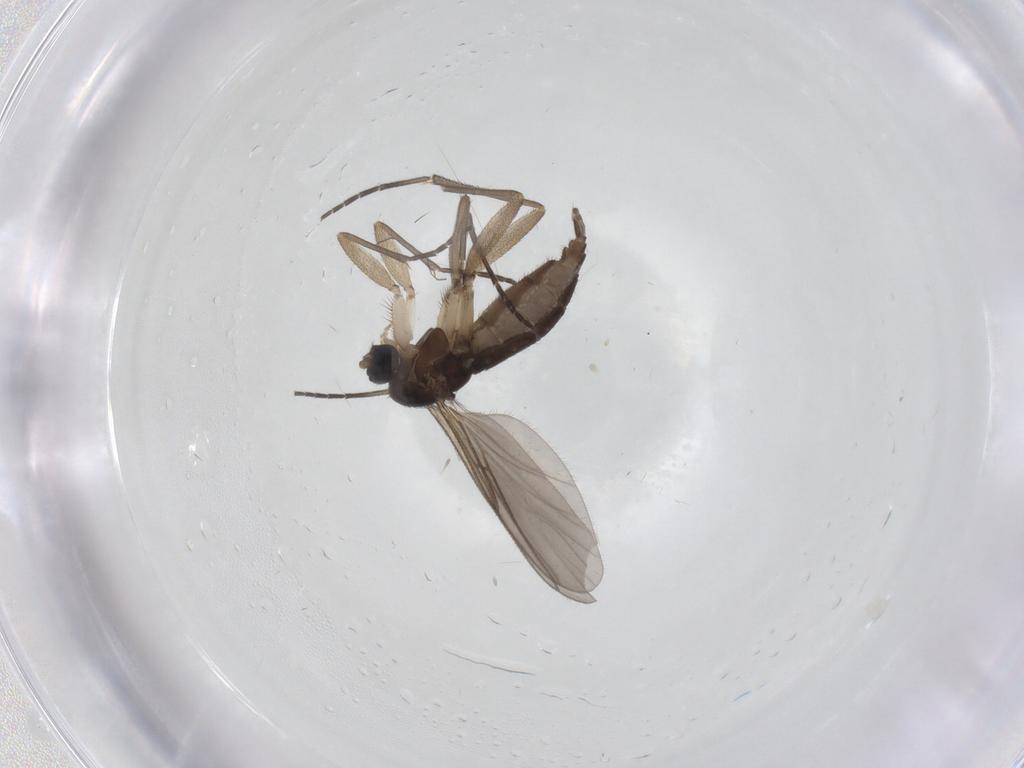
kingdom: Animalia
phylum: Arthropoda
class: Insecta
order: Diptera
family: Sciaridae
